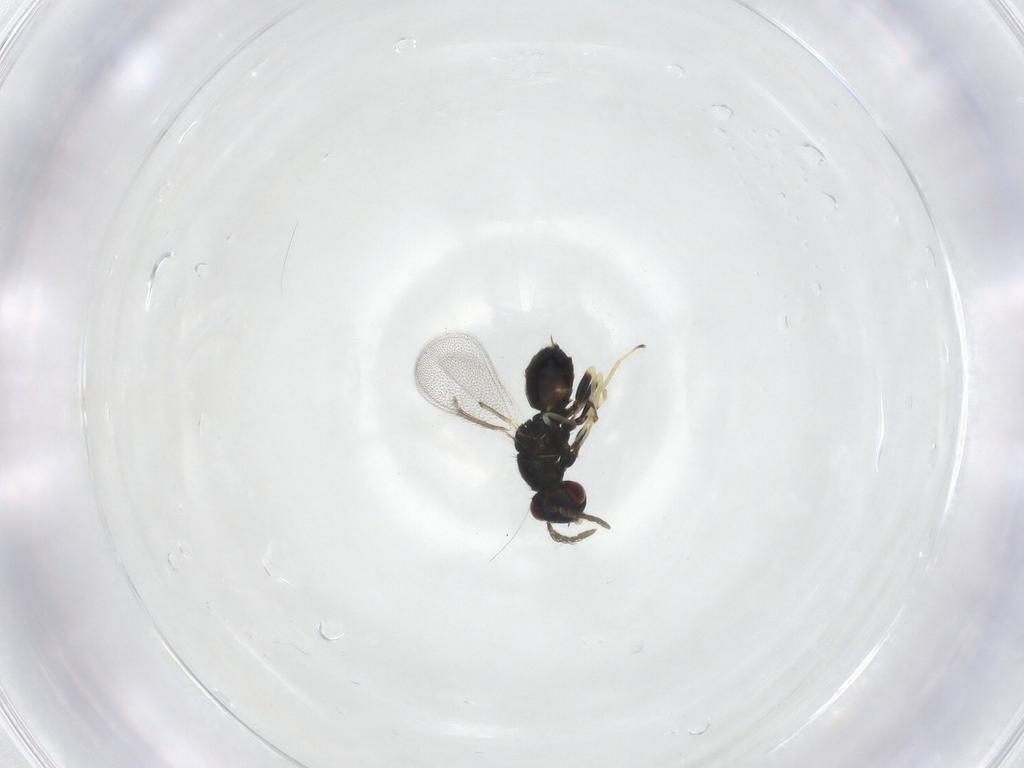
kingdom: Animalia
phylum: Arthropoda
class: Insecta
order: Hymenoptera
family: Eulophidae
